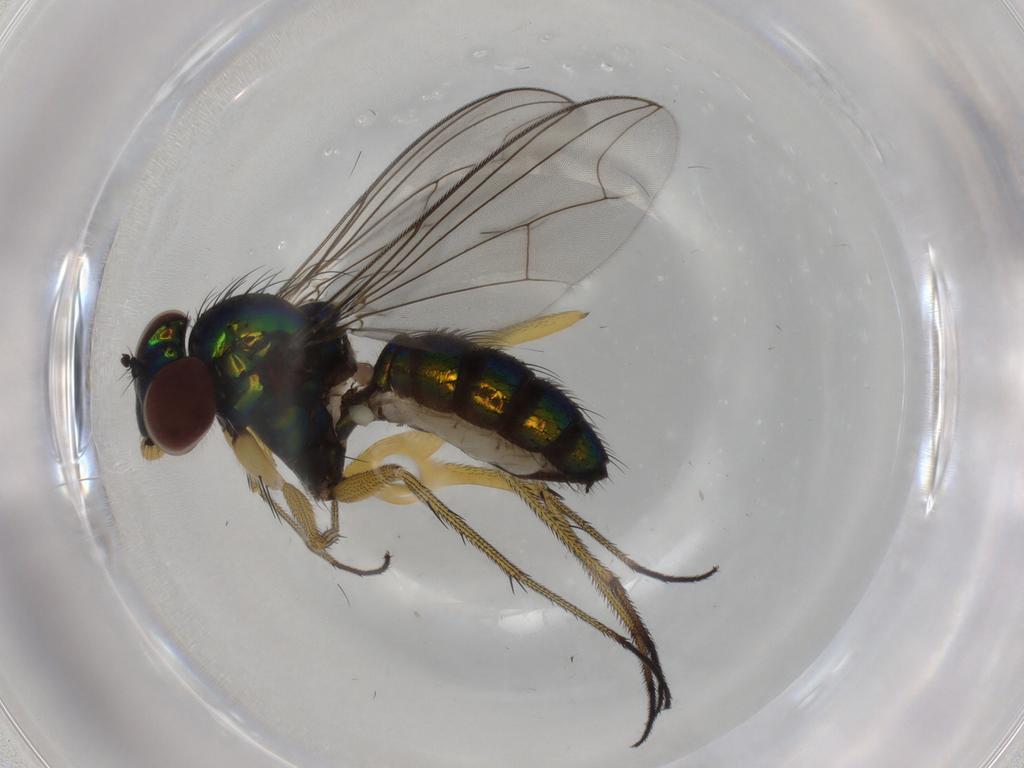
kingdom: Animalia
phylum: Arthropoda
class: Insecta
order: Diptera
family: Dolichopodidae
